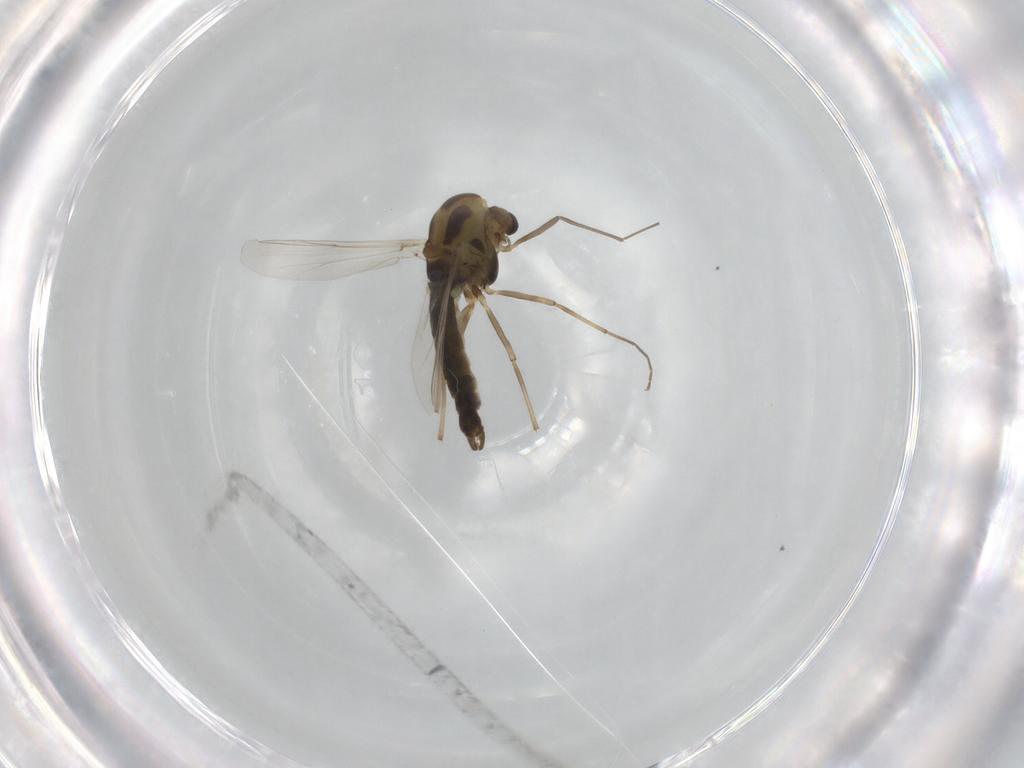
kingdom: Animalia
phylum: Arthropoda
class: Insecta
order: Diptera
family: Chironomidae
